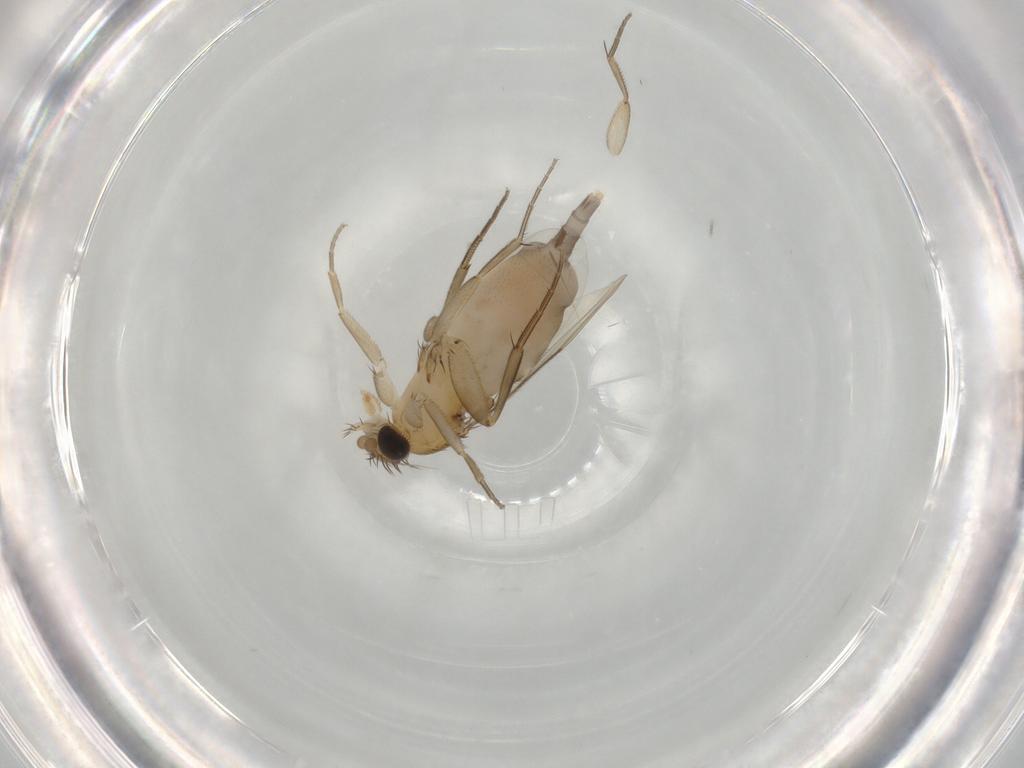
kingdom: Animalia
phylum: Arthropoda
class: Insecta
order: Diptera
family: Phoridae
